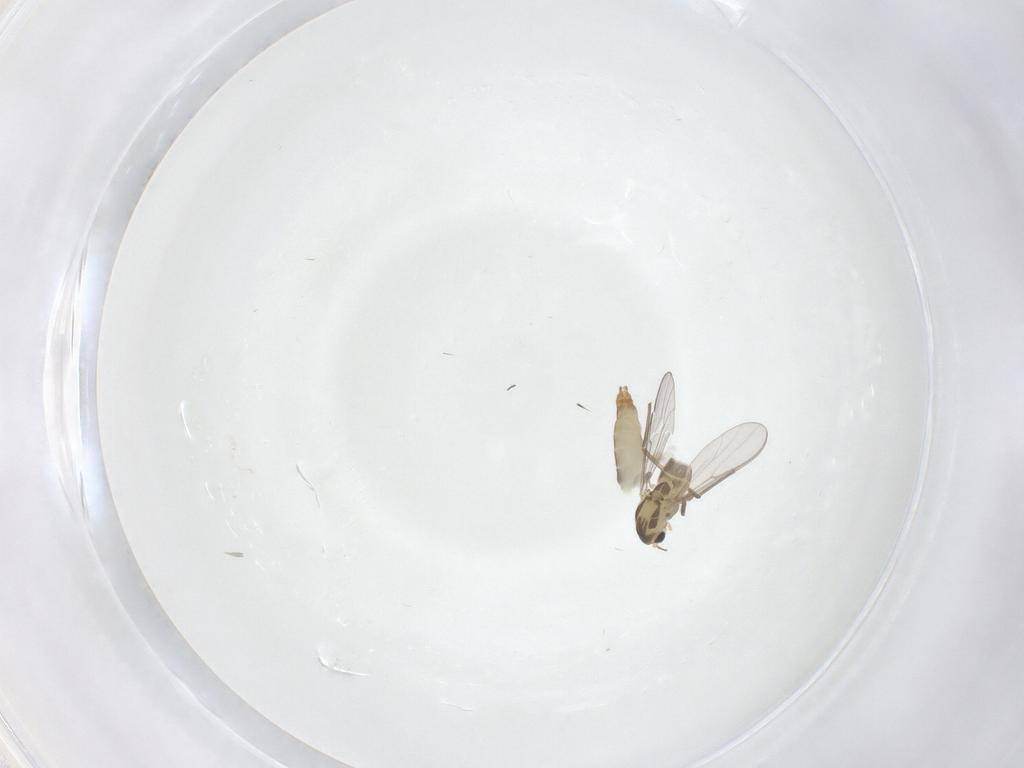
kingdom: Animalia
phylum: Arthropoda
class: Insecta
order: Diptera
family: Chironomidae
